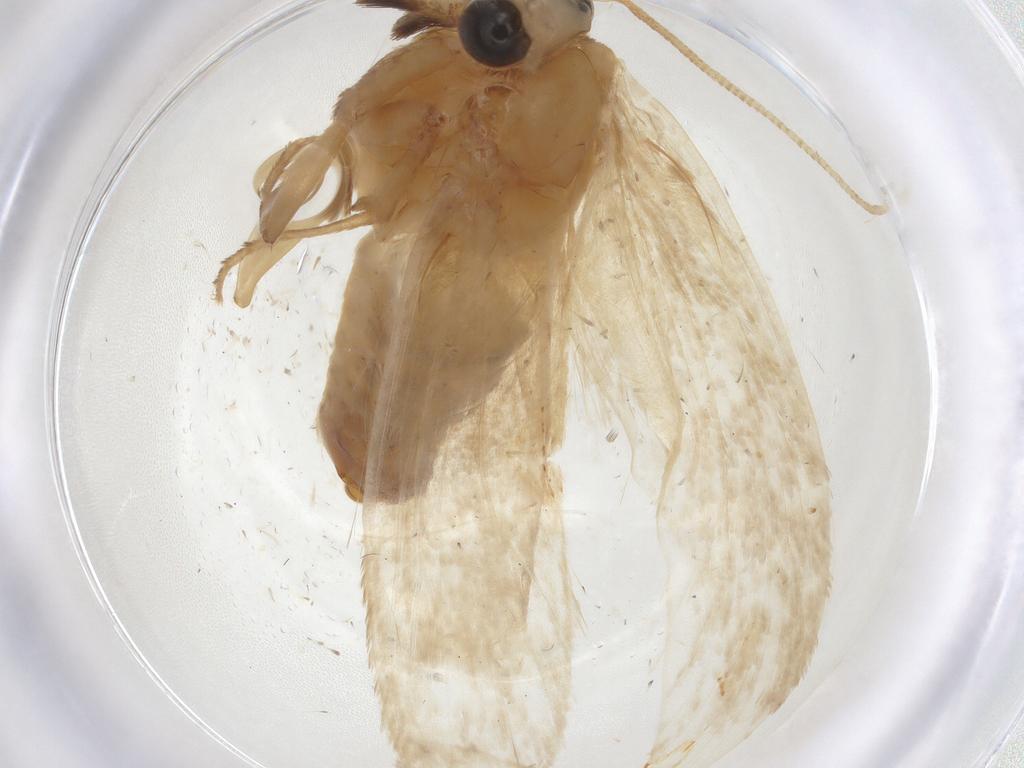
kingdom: Animalia
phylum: Arthropoda
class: Insecta
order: Lepidoptera
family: Tineidae
